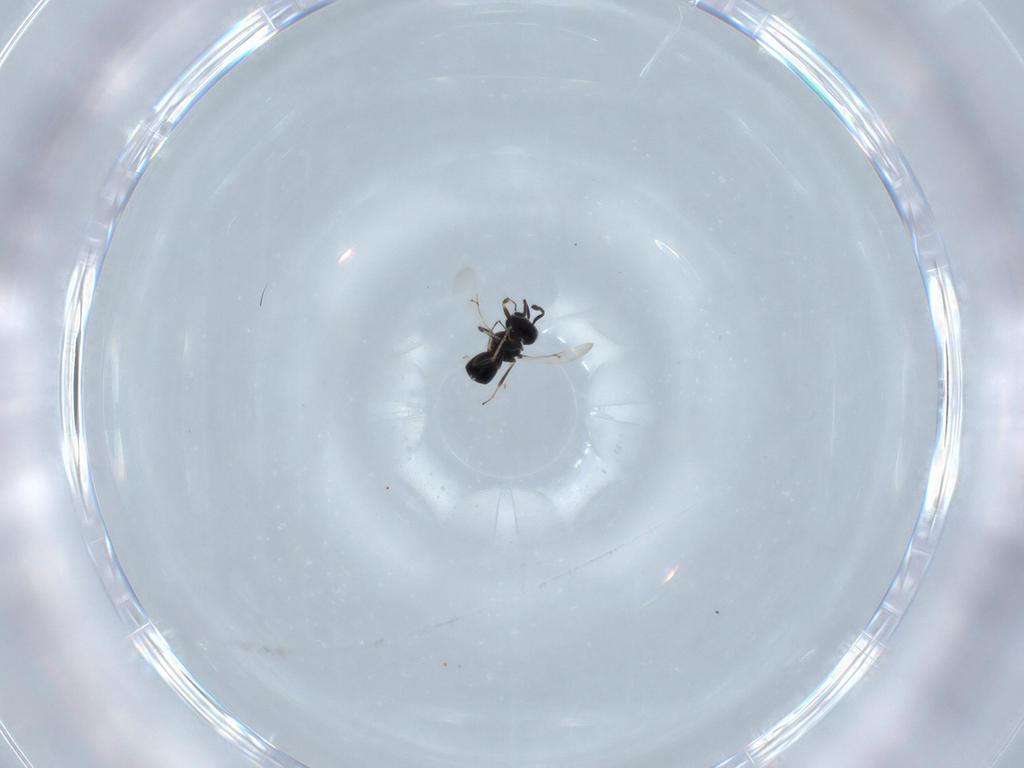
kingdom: Animalia
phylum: Arthropoda
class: Insecta
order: Hymenoptera
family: Scelionidae
